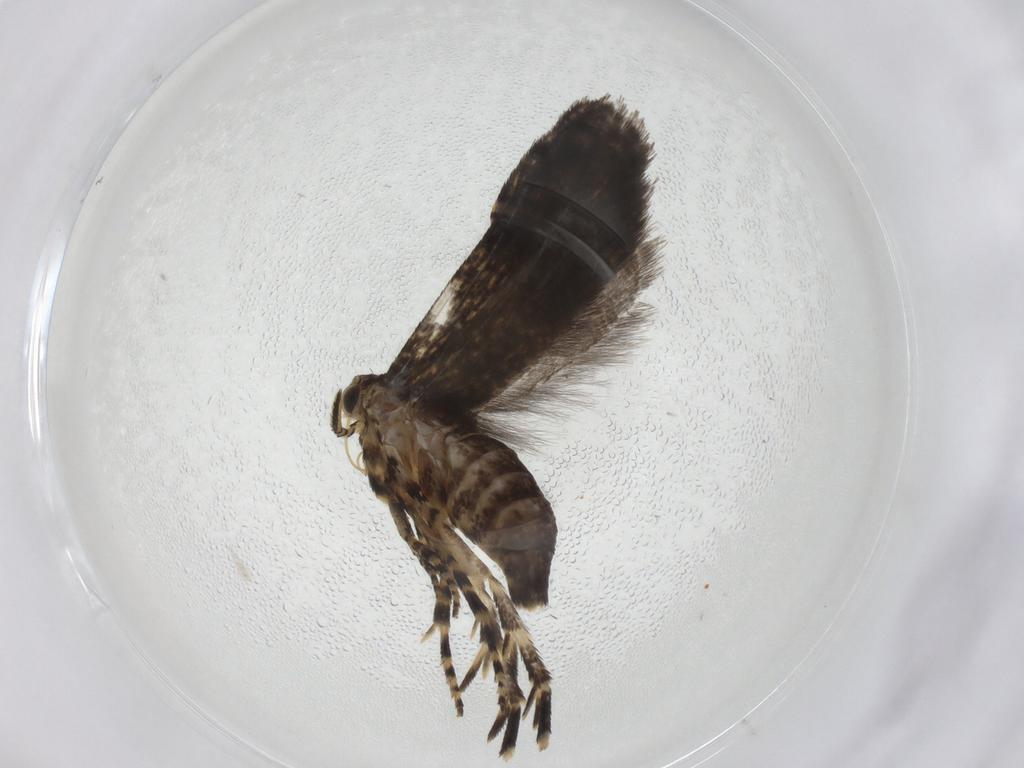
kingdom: Animalia
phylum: Arthropoda
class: Insecta
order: Lepidoptera
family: Geometridae
